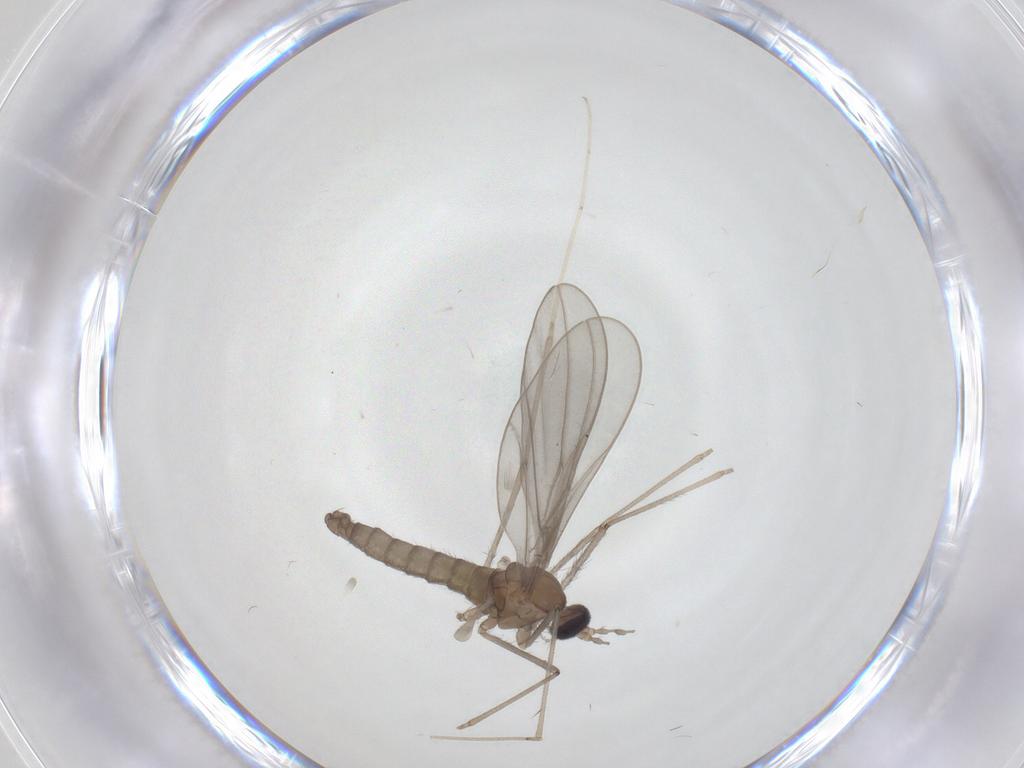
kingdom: Animalia
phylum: Arthropoda
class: Insecta
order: Diptera
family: Cecidomyiidae
